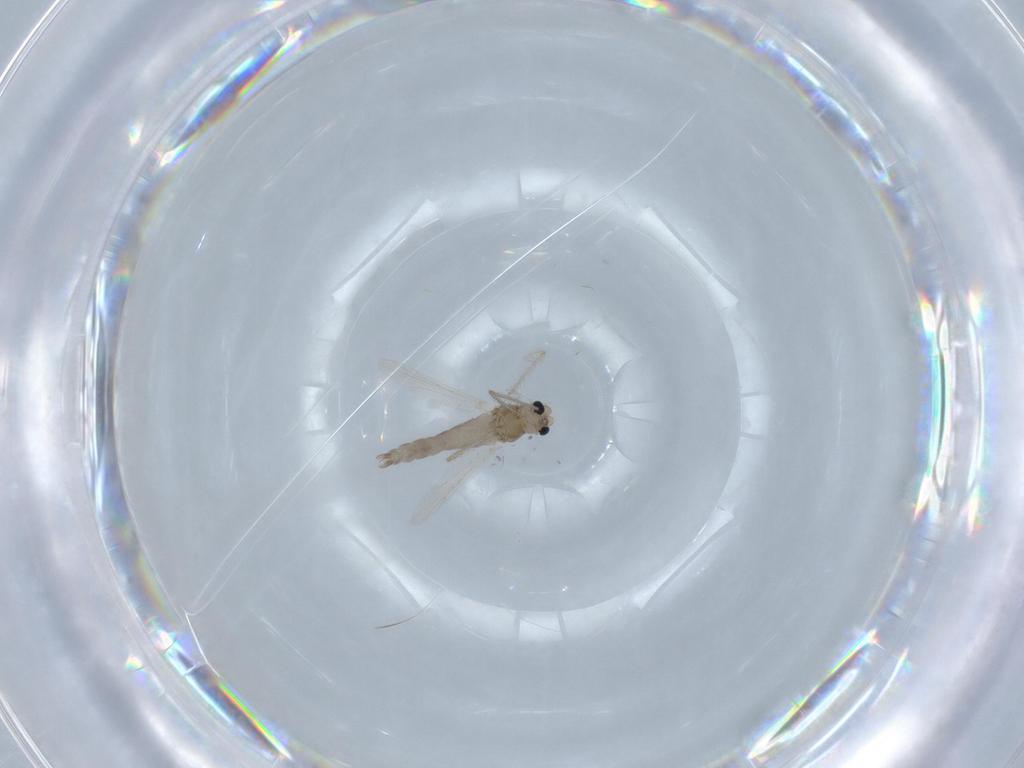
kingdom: Animalia
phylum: Arthropoda
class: Insecta
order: Diptera
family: Chironomidae
